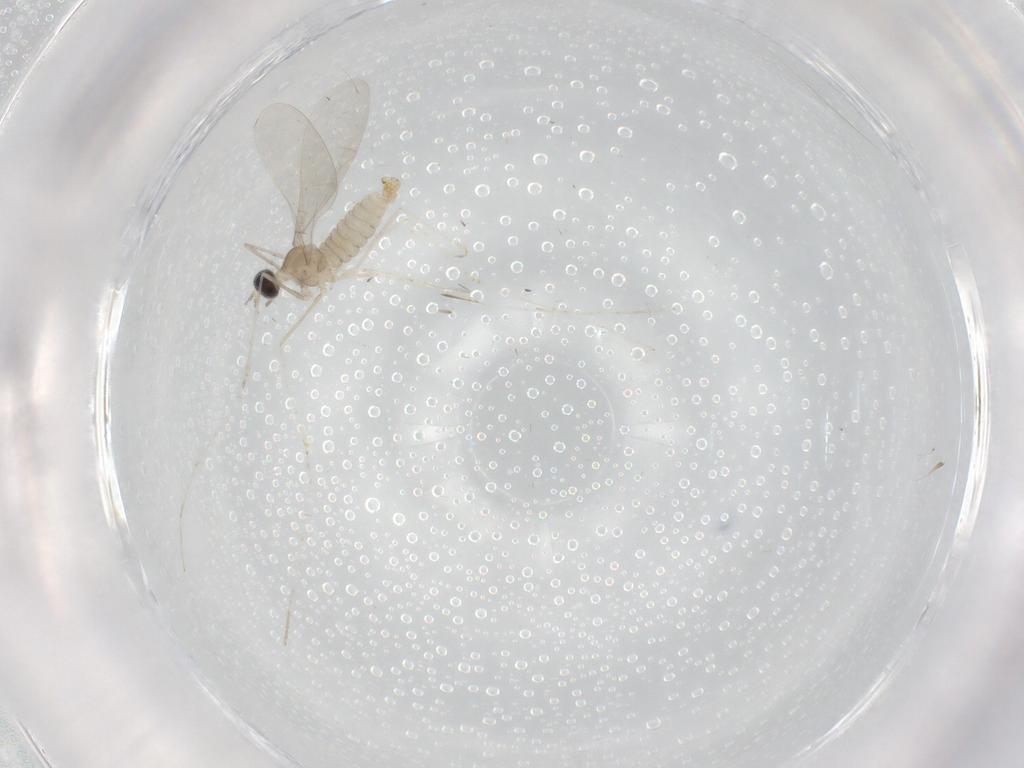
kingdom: Animalia
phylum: Arthropoda
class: Insecta
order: Diptera
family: Cecidomyiidae
